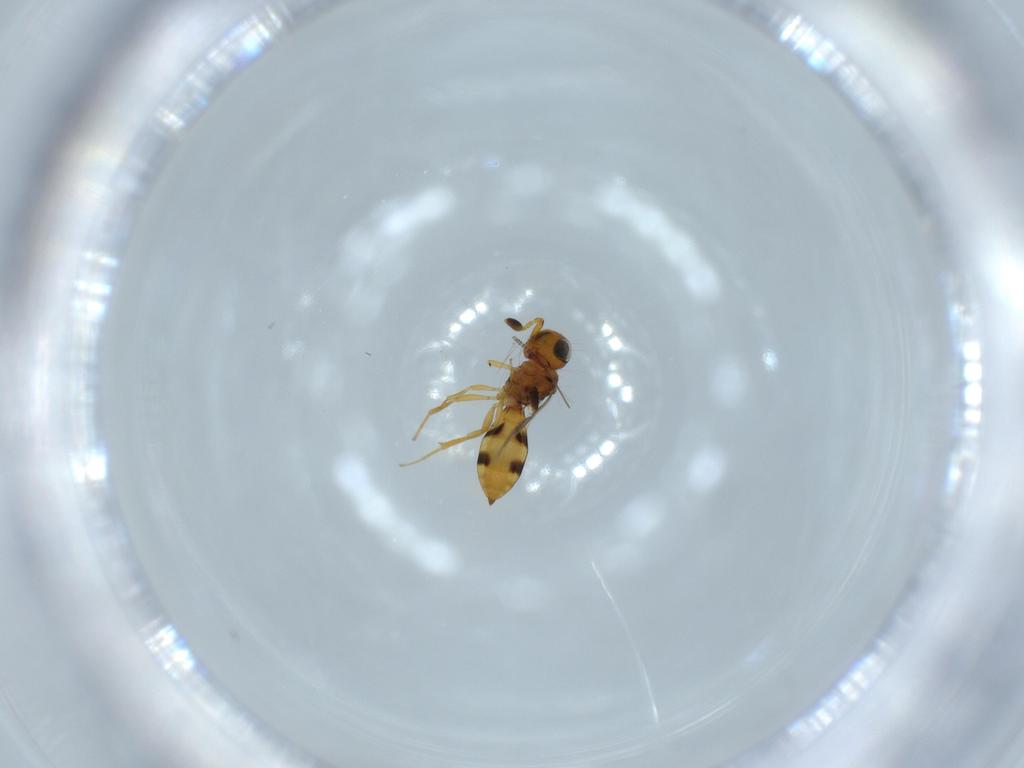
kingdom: Animalia
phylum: Arthropoda
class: Insecta
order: Hymenoptera
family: Scelionidae
